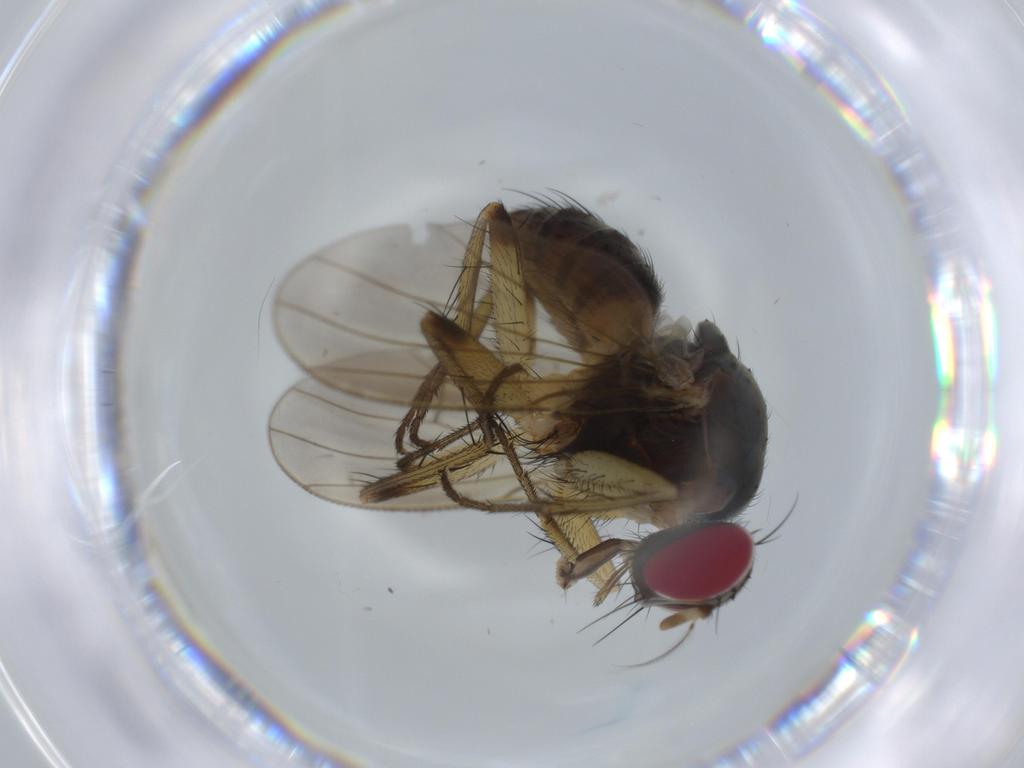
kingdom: Animalia
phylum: Arthropoda
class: Insecta
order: Diptera
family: Muscidae
